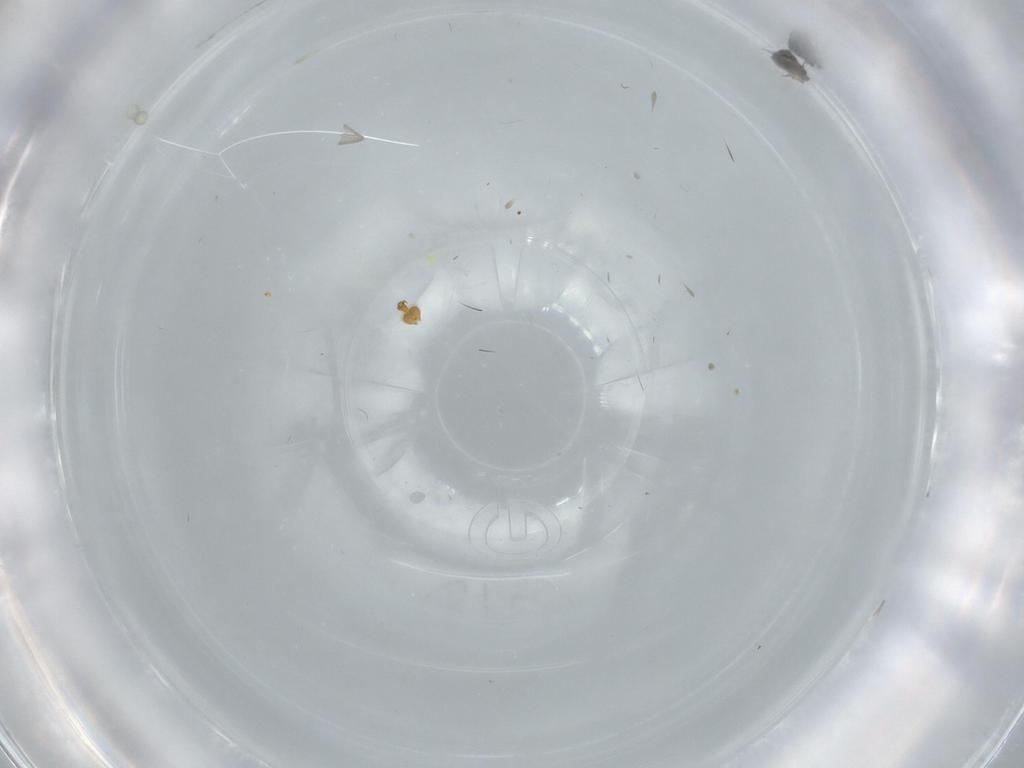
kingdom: Animalia
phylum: Arthropoda
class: Insecta
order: Coleoptera
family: Chrysomelidae
